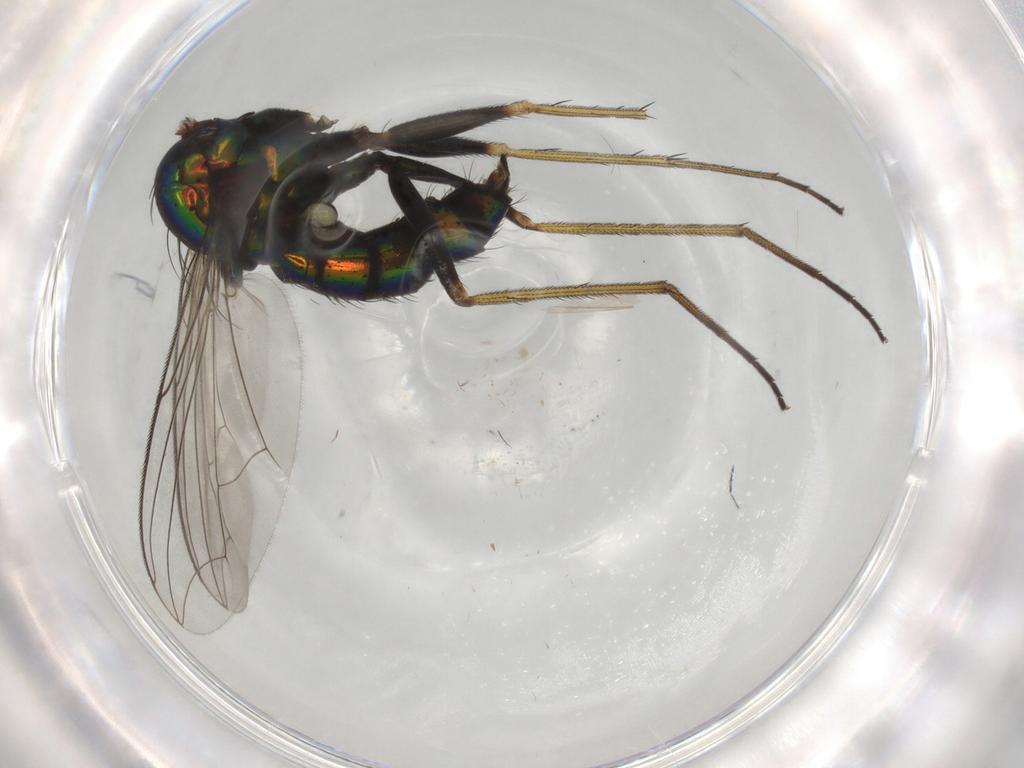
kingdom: Animalia
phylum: Arthropoda
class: Insecta
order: Diptera
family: Dolichopodidae
